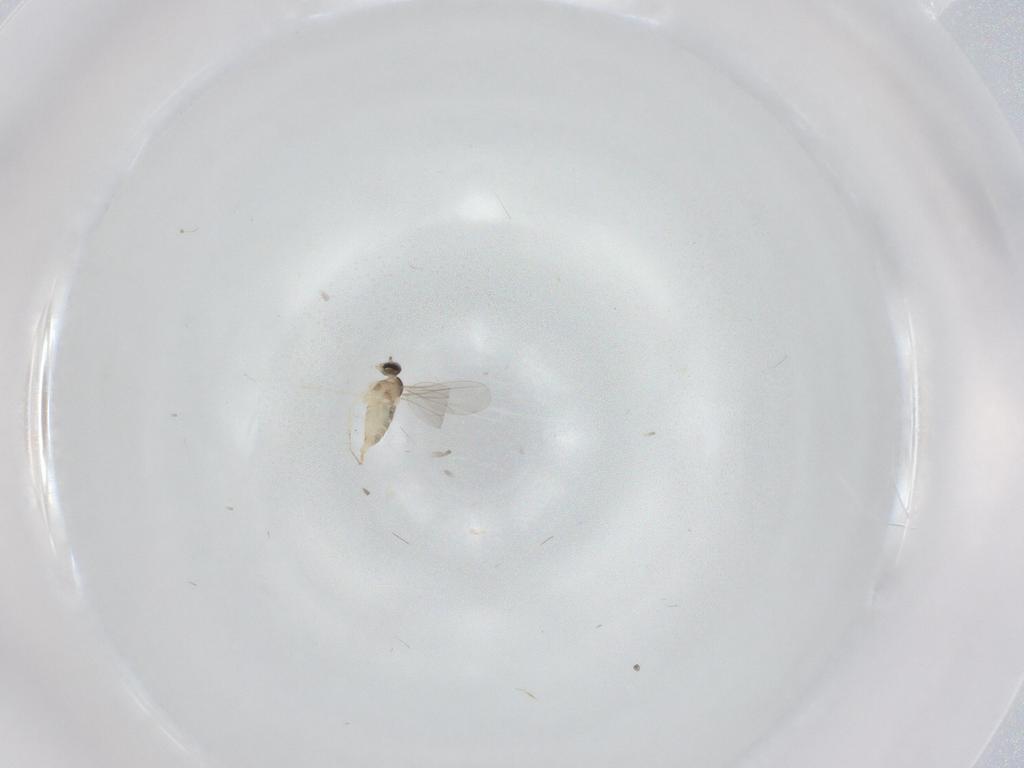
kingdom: Animalia
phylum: Arthropoda
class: Insecta
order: Diptera
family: Cecidomyiidae
